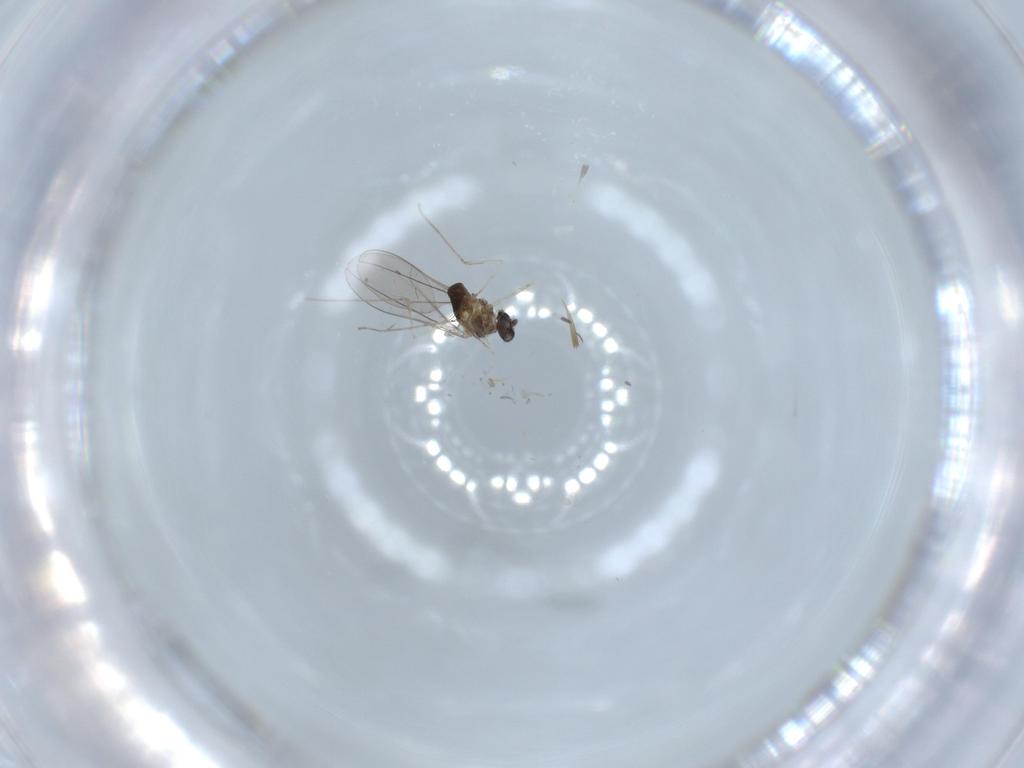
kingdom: Animalia
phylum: Arthropoda
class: Insecta
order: Diptera
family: Cecidomyiidae
